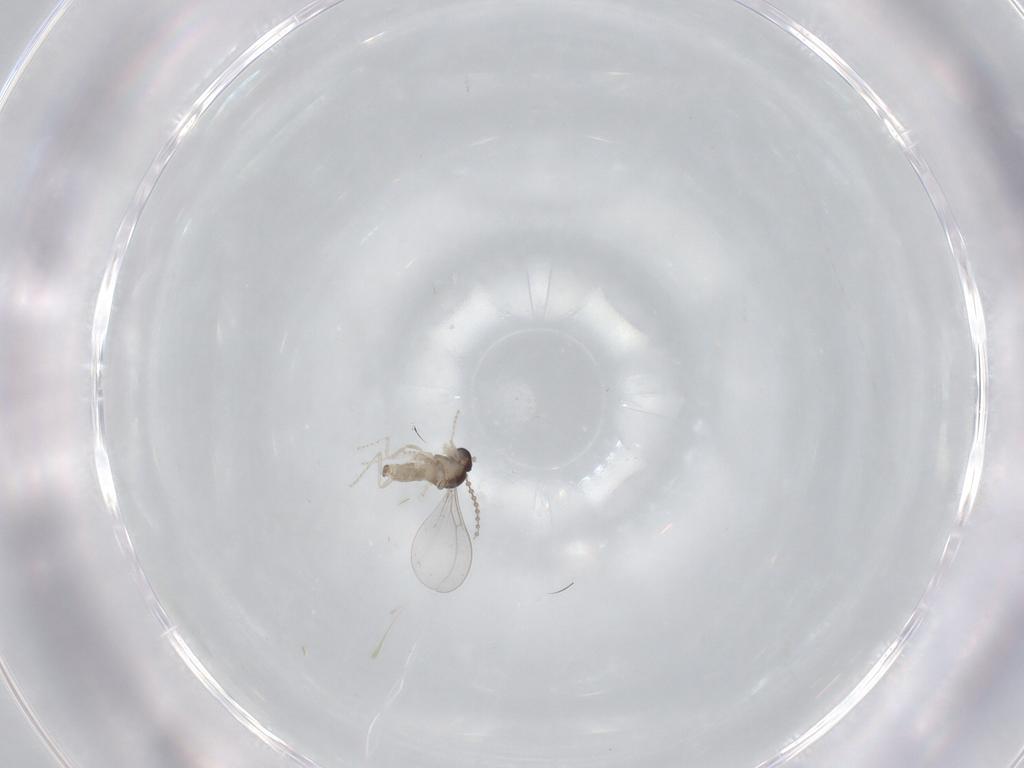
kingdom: Animalia
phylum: Arthropoda
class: Insecta
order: Diptera
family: Cecidomyiidae
